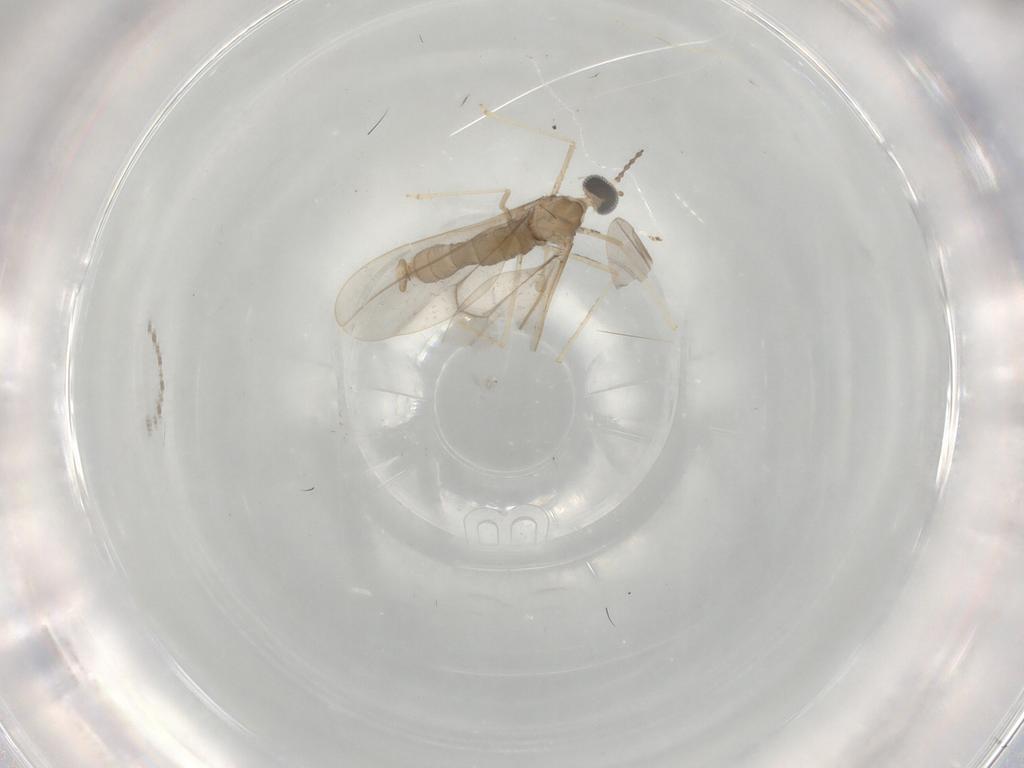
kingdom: Animalia
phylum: Arthropoda
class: Insecta
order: Diptera
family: Cecidomyiidae
